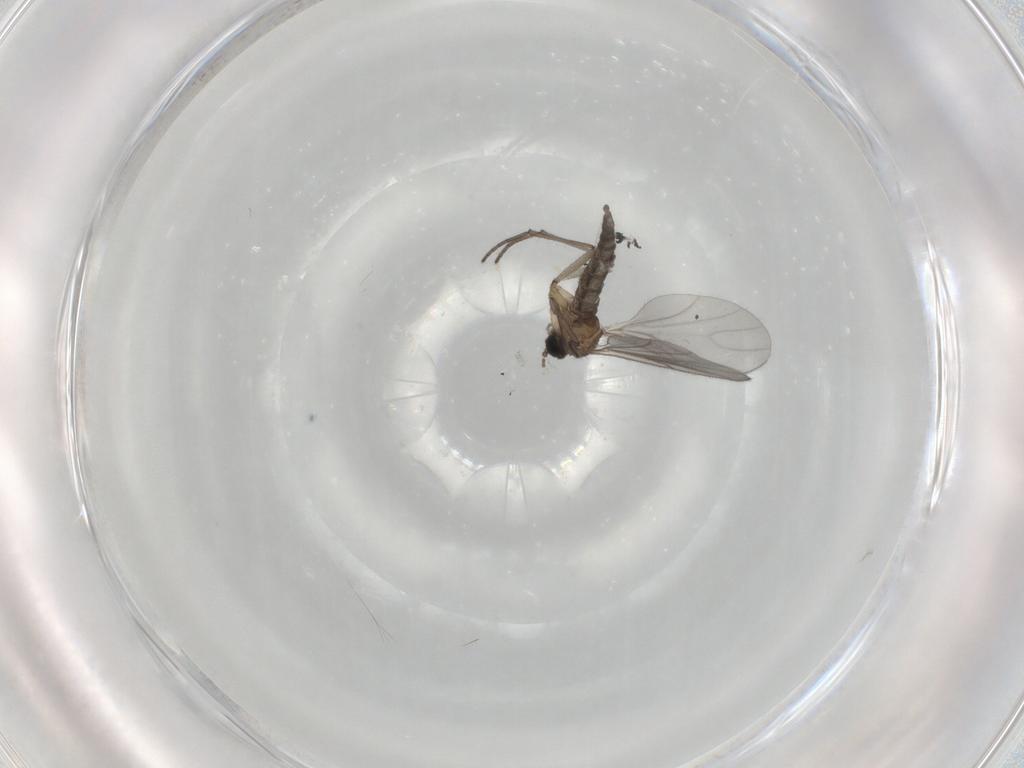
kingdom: Animalia
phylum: Arthropoda
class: Insecta
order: Diptera
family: Sciaridae
